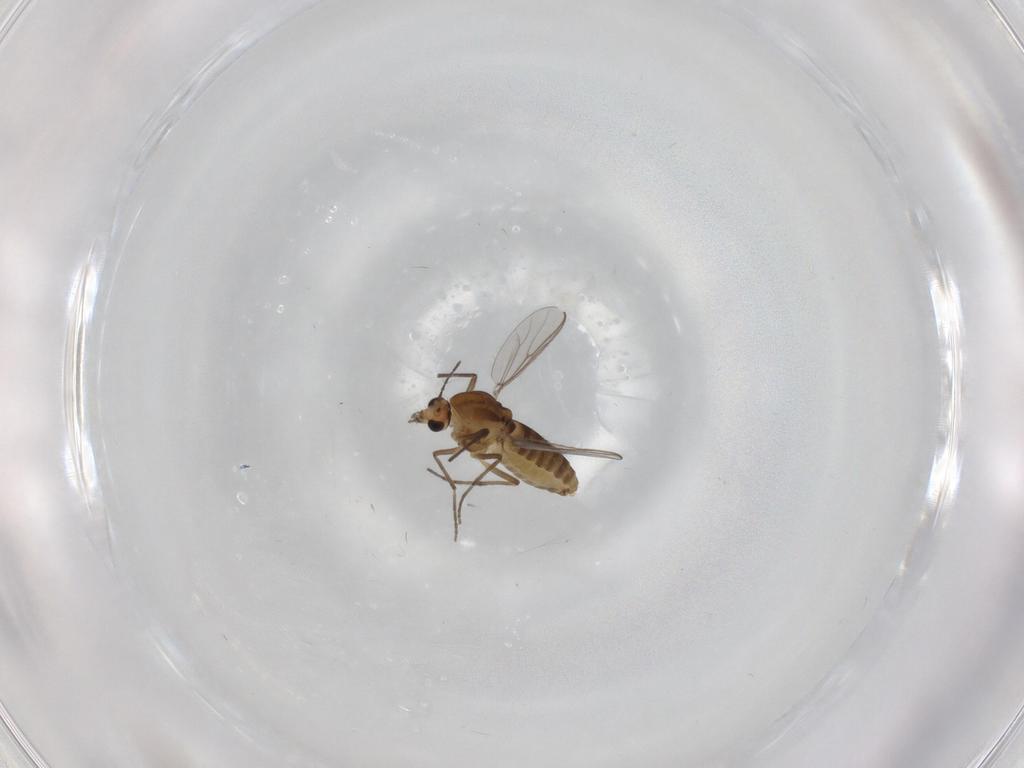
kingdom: Animalia
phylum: Arthropoda
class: Insecta
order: Diptera
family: Chironomidae
